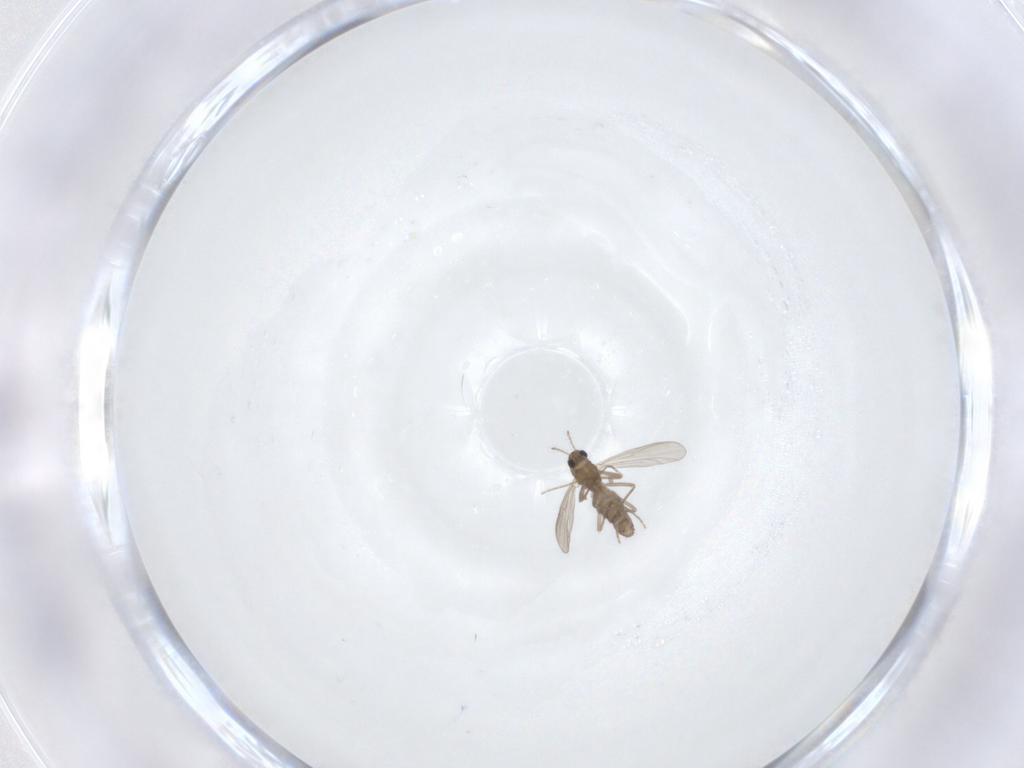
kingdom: Animalia
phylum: Arthropoda
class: Insecta
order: Diptera
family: Chironomidae
